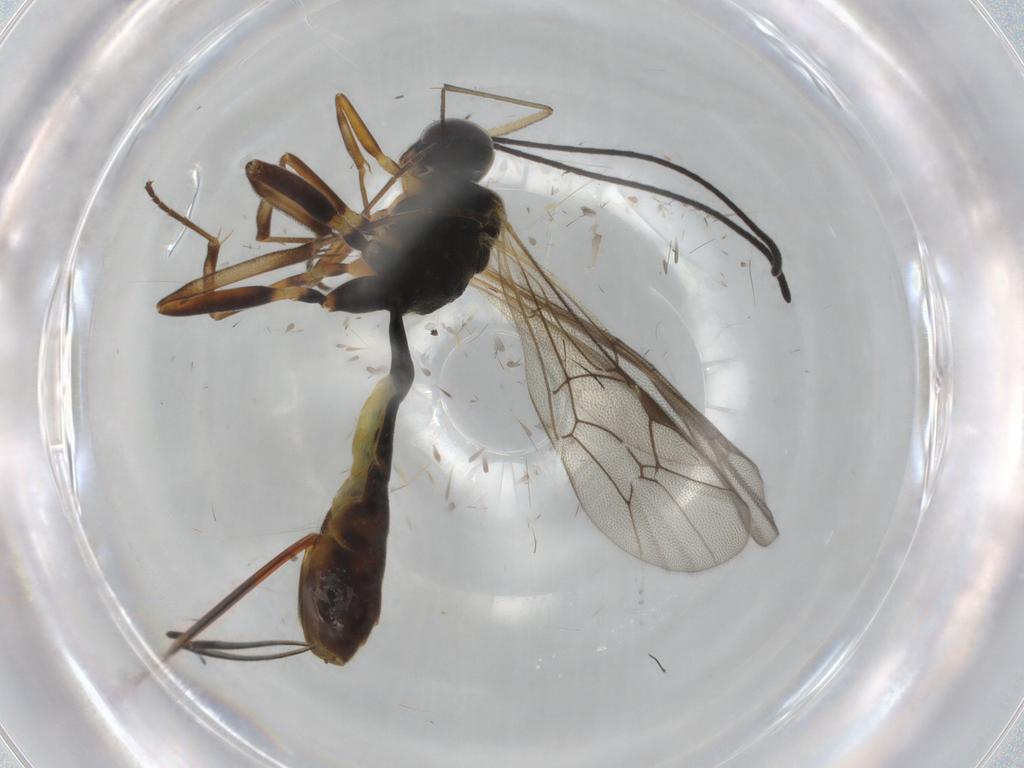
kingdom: Animalia
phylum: Arthropoda
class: Insecta
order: Hymenoptera
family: Ichneumonidae
